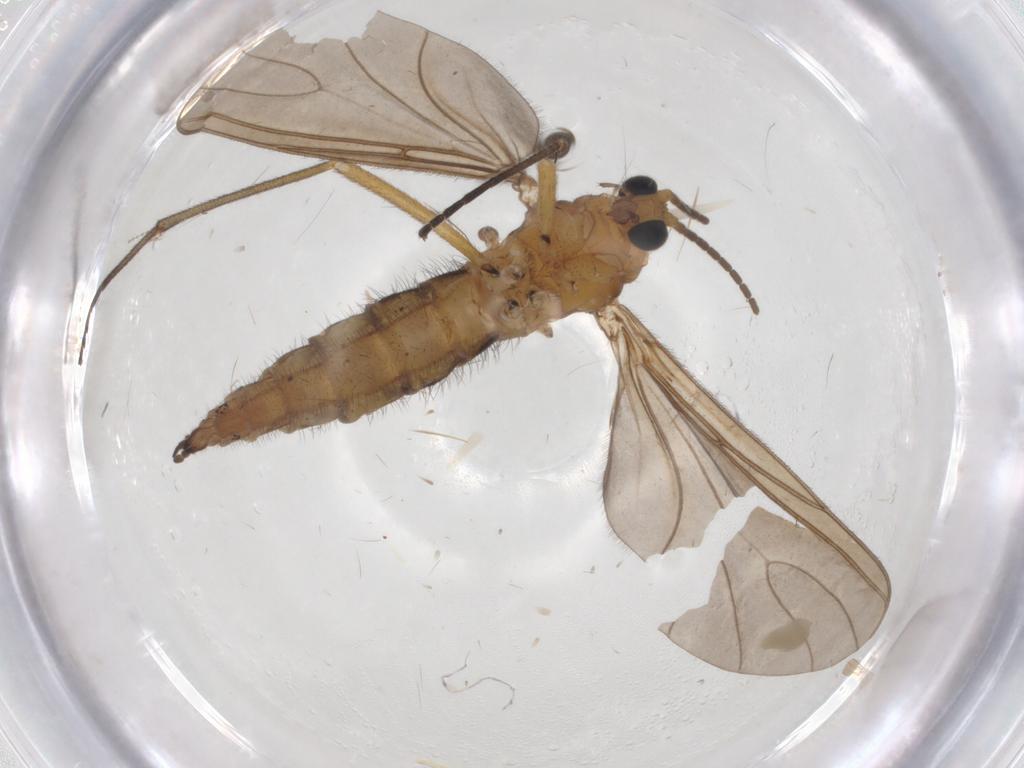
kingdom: Animalia
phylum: Arthropoda
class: Insecta
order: Diptera
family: Sciaridae
